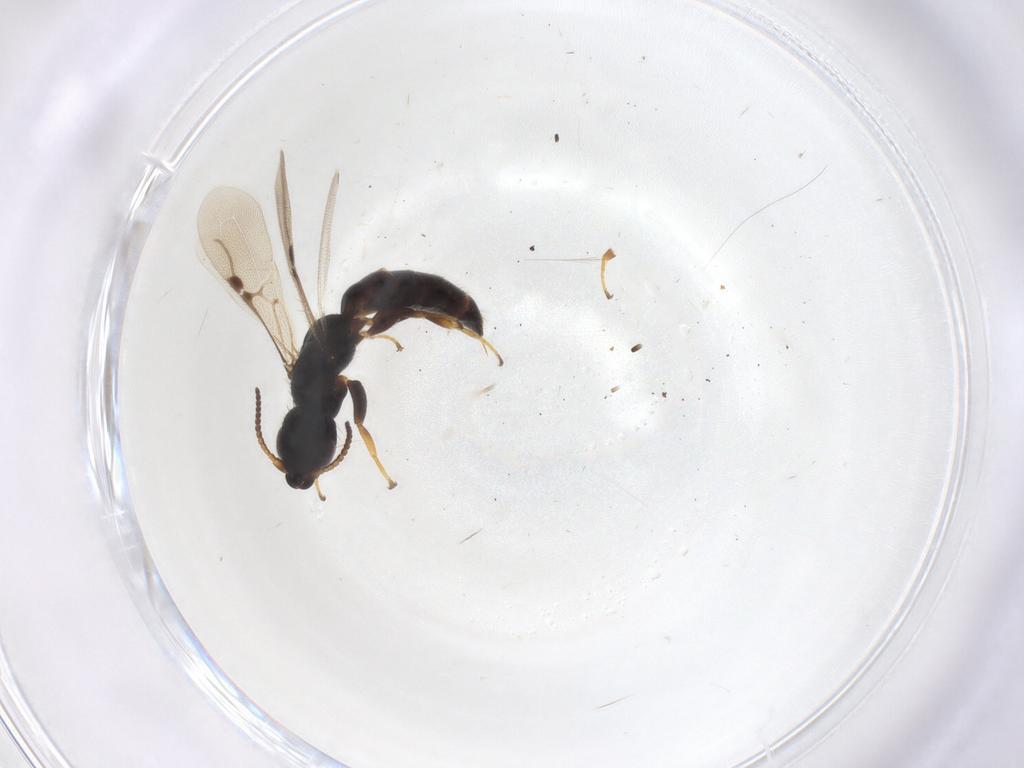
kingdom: Animalia
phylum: Arthropoda
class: Insecta
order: Hymenoptera
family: Bethylidae
